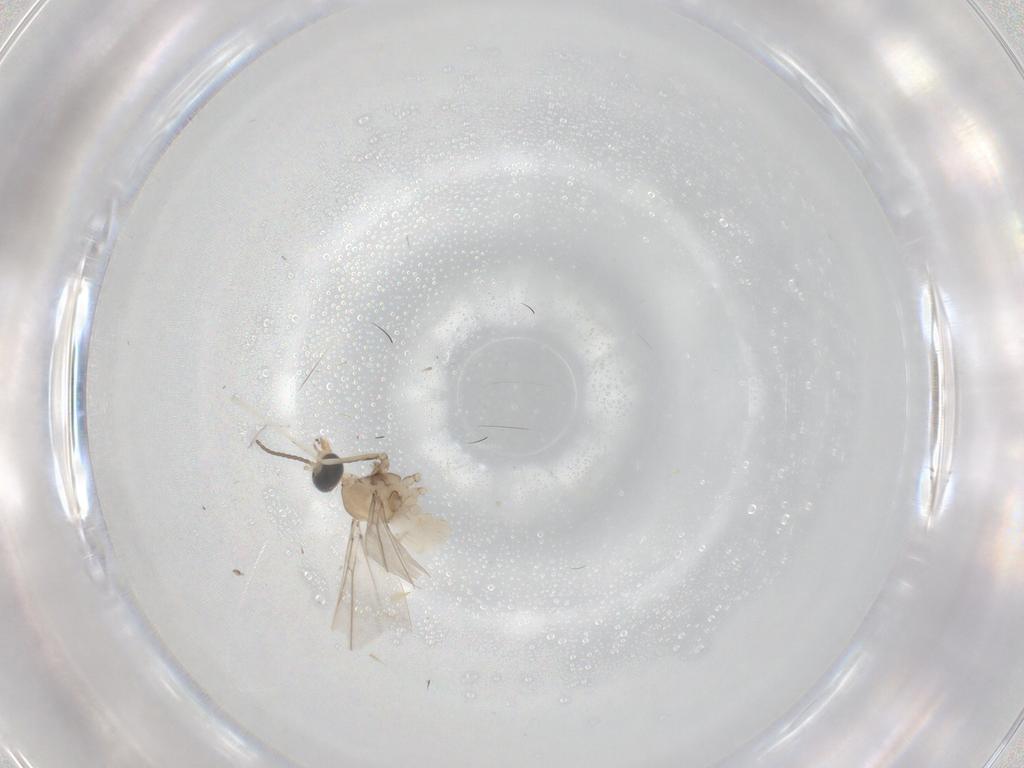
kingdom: Animalia
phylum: Arthropoda
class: Insecta
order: Diptera
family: Cecidomyiidae
